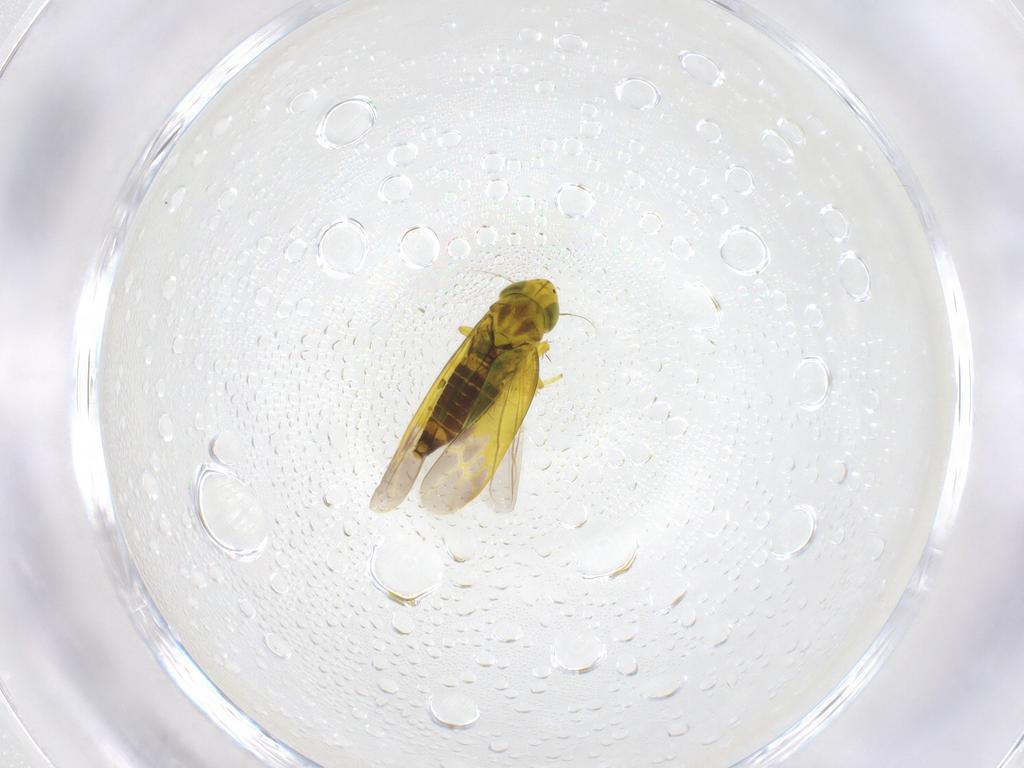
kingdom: Animalia
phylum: Arthropoda
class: Insecta
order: Hemiptera
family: Cicadellidae
